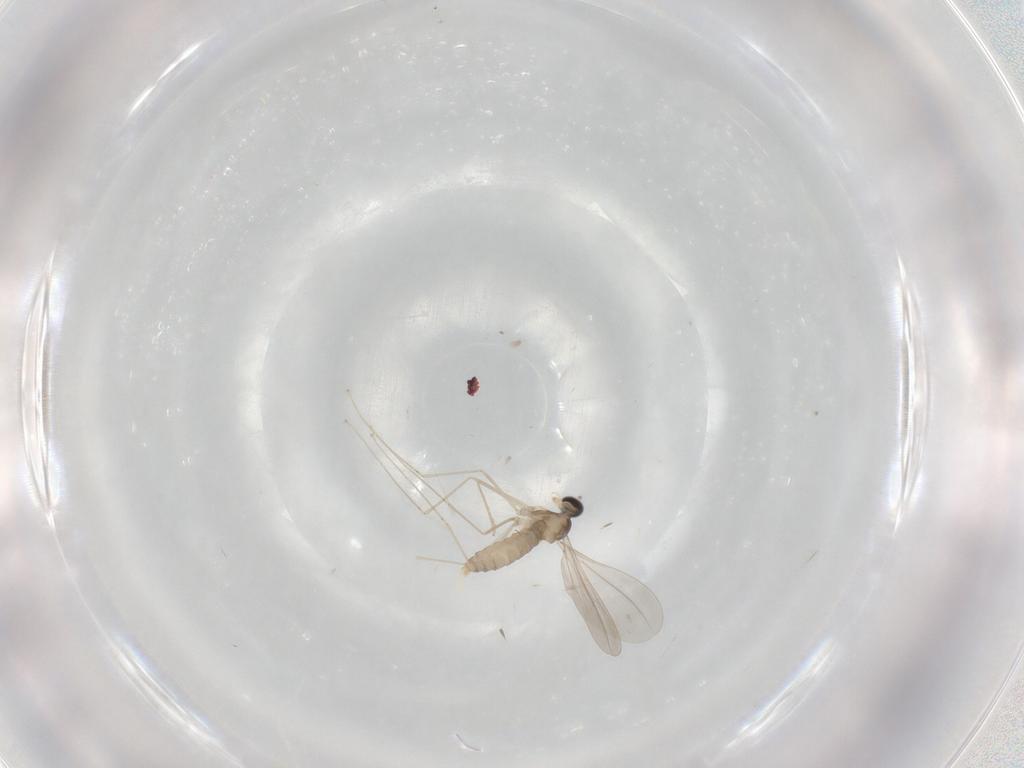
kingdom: Animalia
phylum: Arthropoda
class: Insecta
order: Diptera
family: Cecidomyiidae
